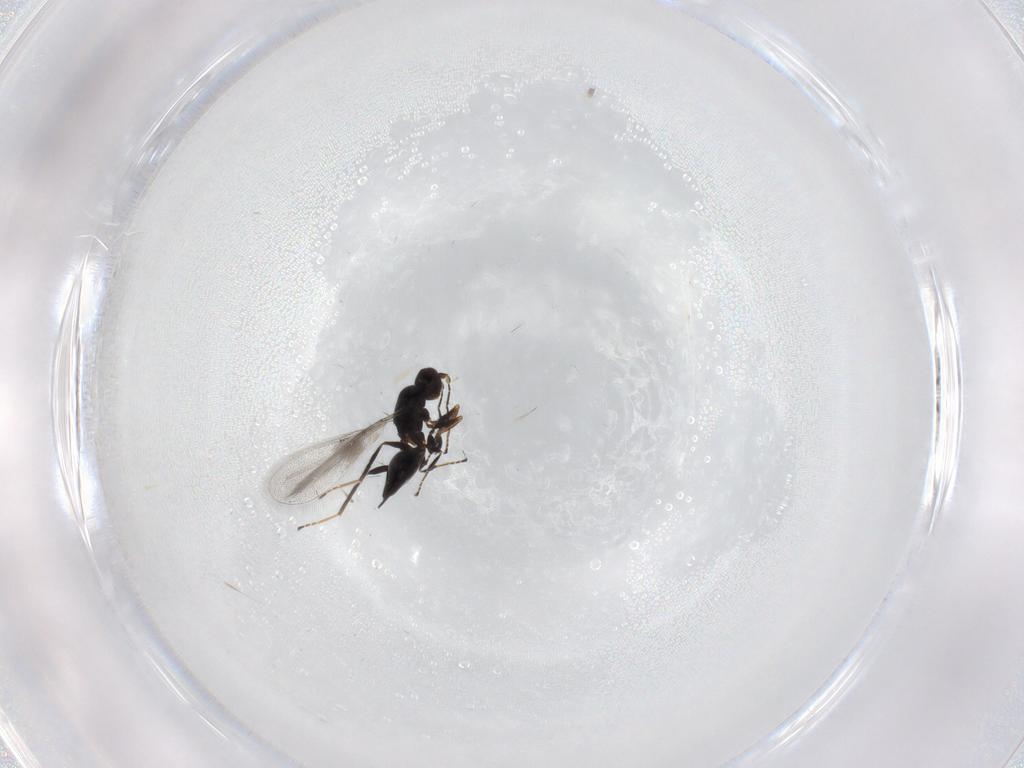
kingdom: Animalia
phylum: Arthropoda
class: Insecta
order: Hymenoptera
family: Mymaridae
